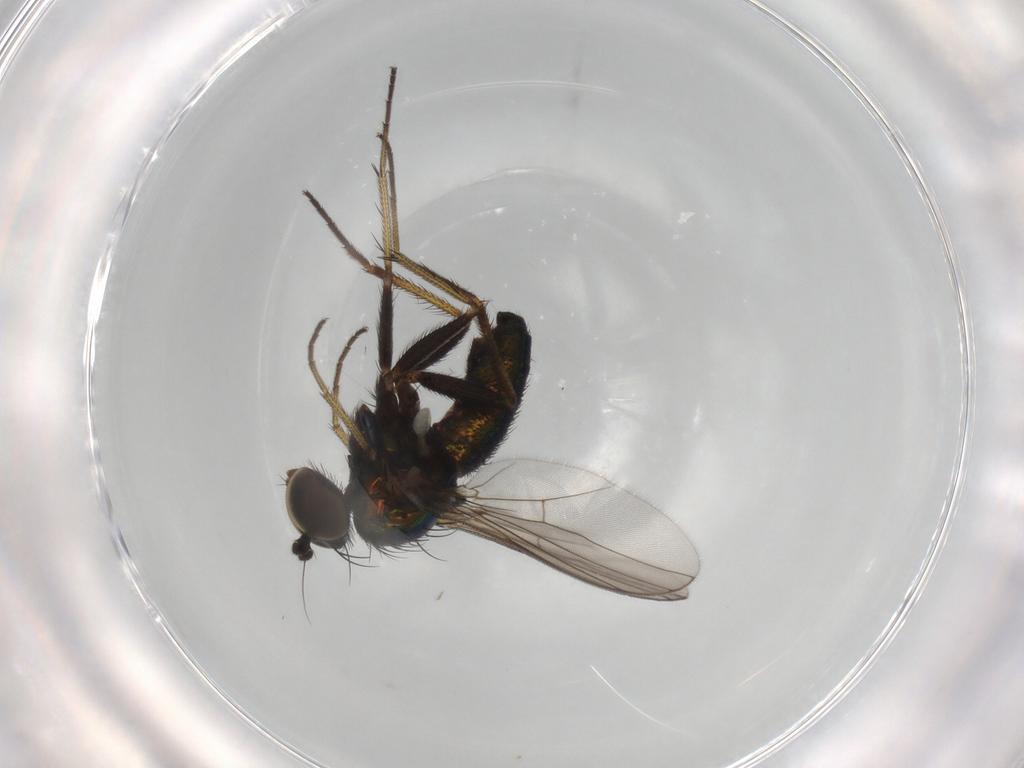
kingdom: Animalia
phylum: Arthropoda
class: Insecta
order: Diptera
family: Dolichopodidae
